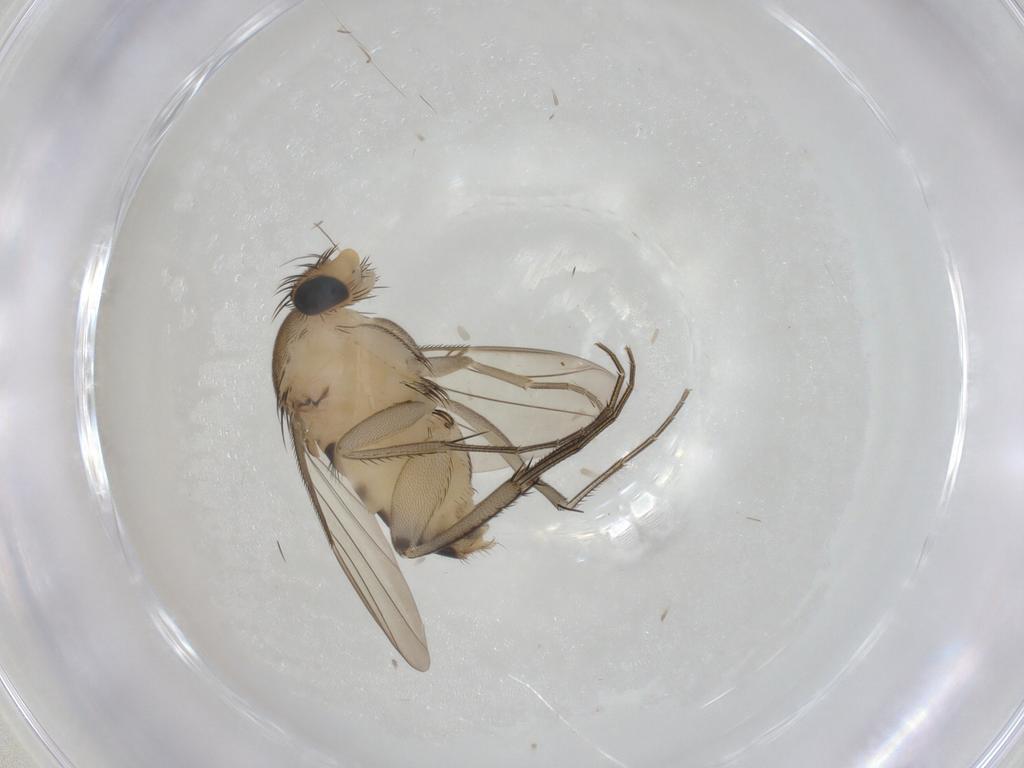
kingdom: Animalia
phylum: Arthropoda
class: Insecta
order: Diptera
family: Phoridae
